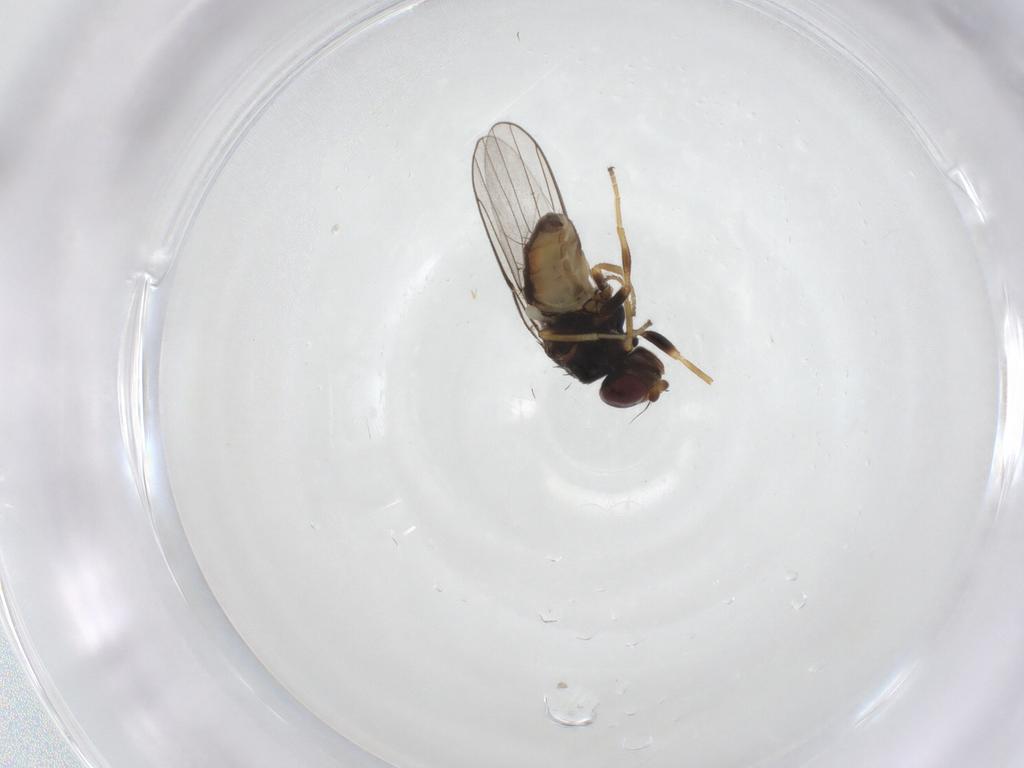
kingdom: Animalia
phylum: Arthropoda
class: Insecta
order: Diptera
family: Chloropidae
